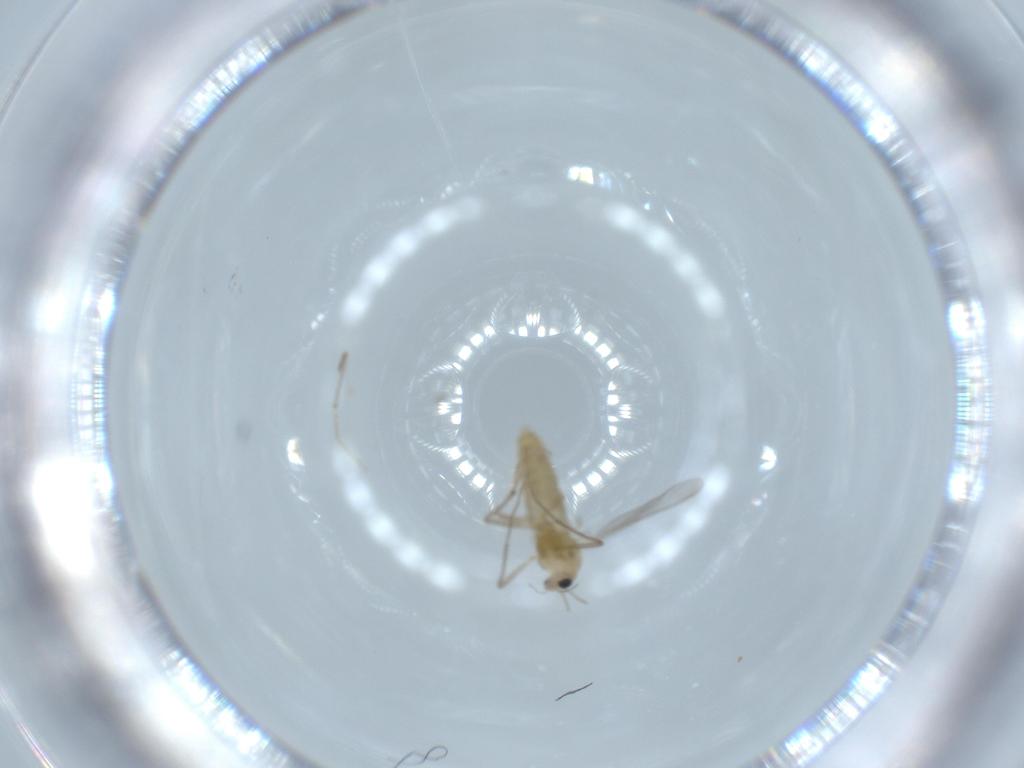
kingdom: Animalia
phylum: Arthropoda
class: Insecta
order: Diptera
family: Chironomidae
